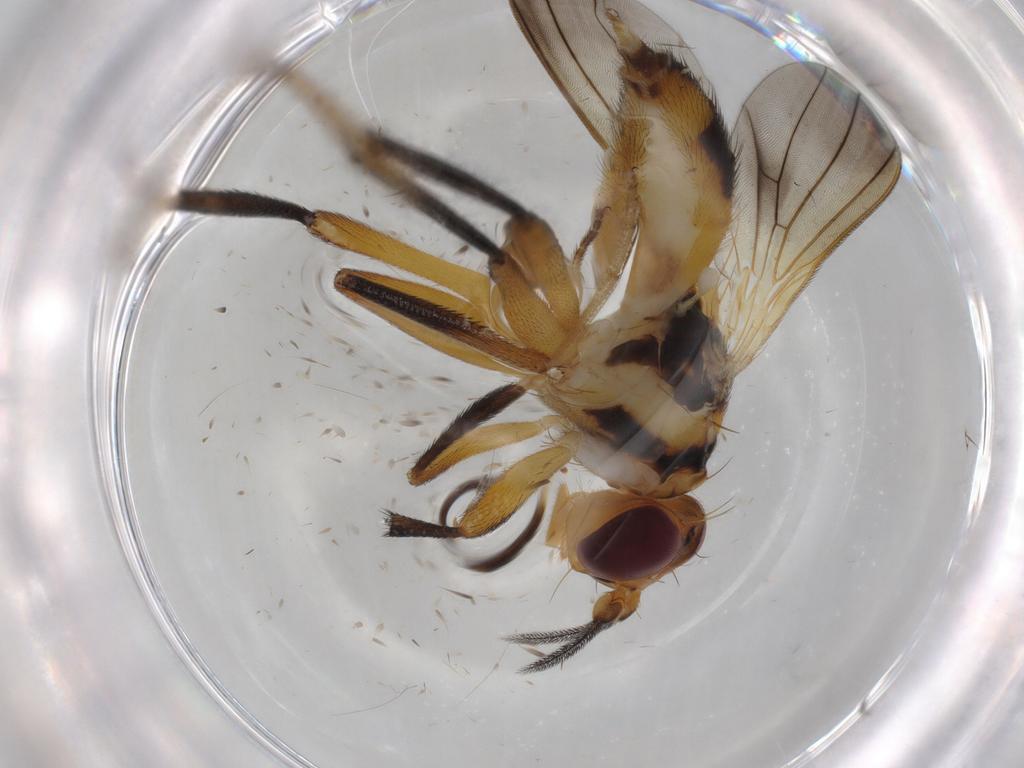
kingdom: Animalia
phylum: Arthropoda
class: Insecta
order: Diptera
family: Clusiidae
